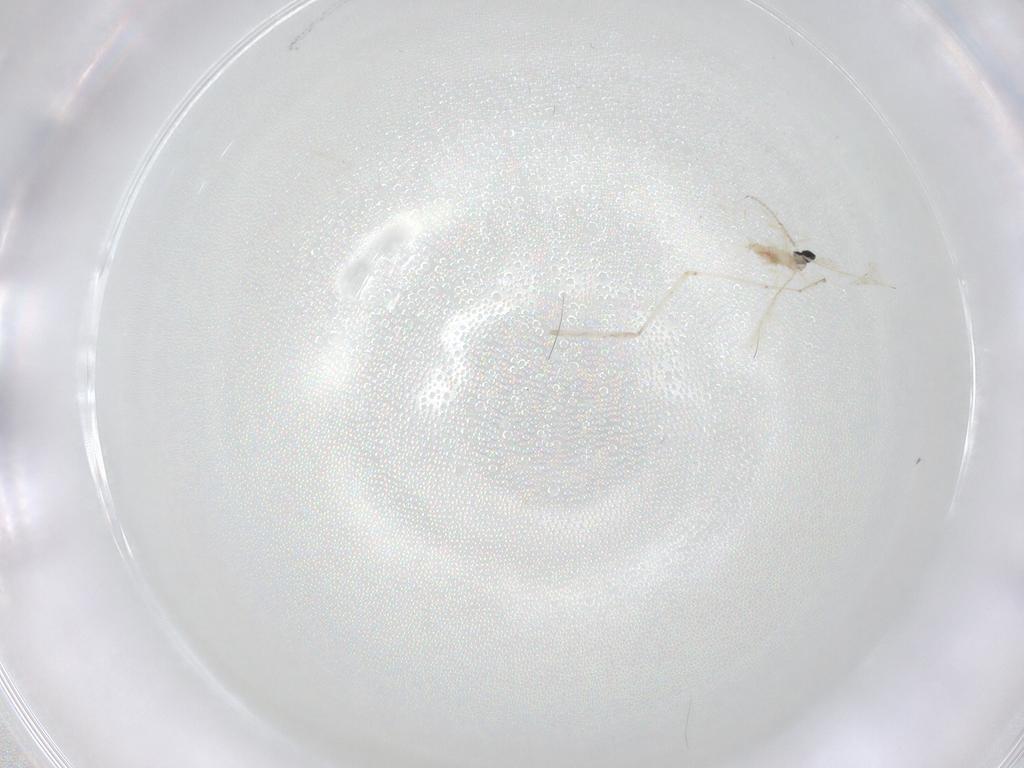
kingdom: Animalia
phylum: Arthropoda
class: Insecta
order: Diptera
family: Cecidomyiidae
